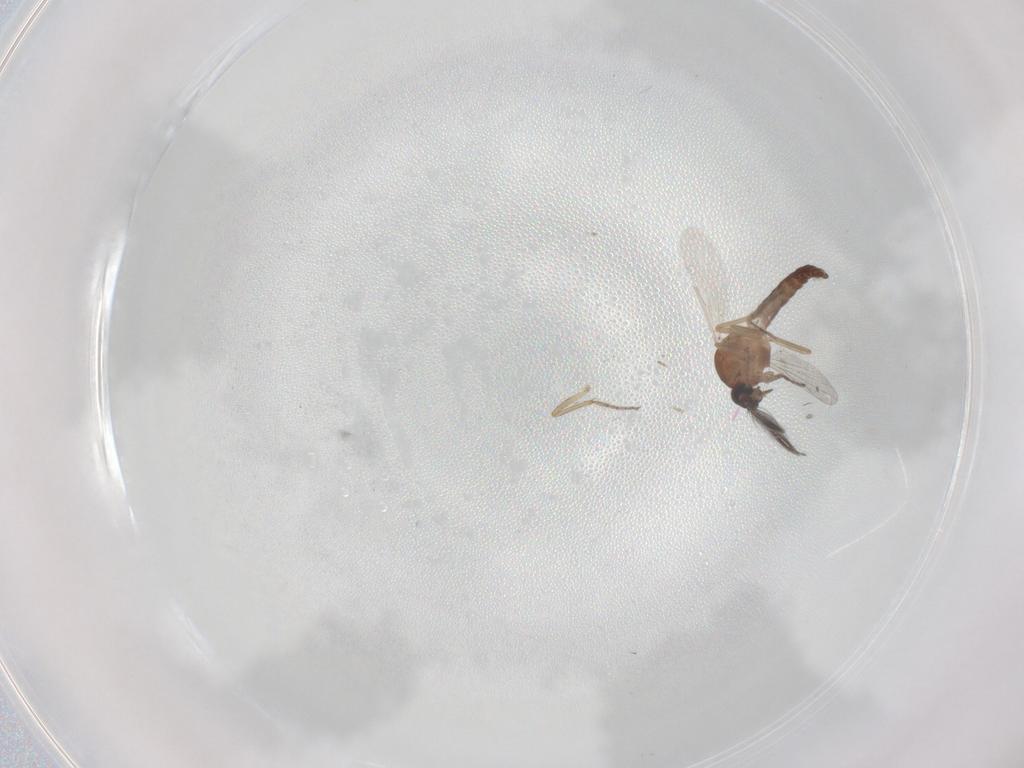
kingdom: Animalia
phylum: Arthropoda
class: Insecta
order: Diptera
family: Ceratopogonidae
